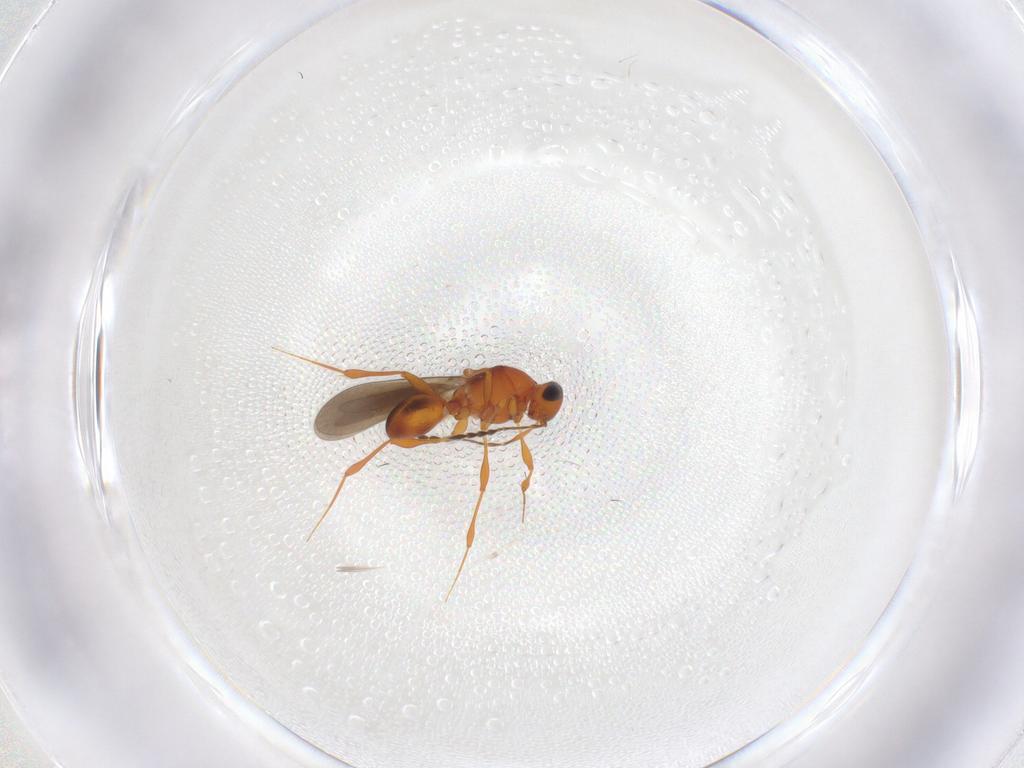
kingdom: Animalia
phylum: Arthropoda
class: Insecta
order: Hymenoptera
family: Platygastridae
